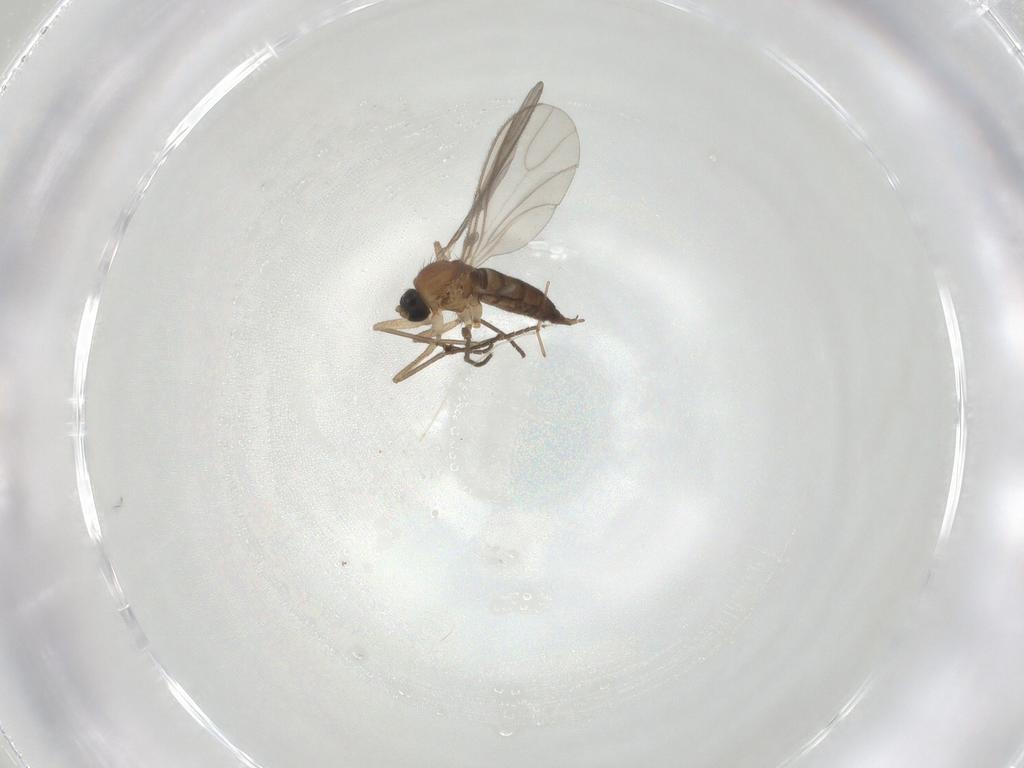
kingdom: Animalia
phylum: Arthropoda
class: Insecta
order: Diptera
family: Sciaridae
